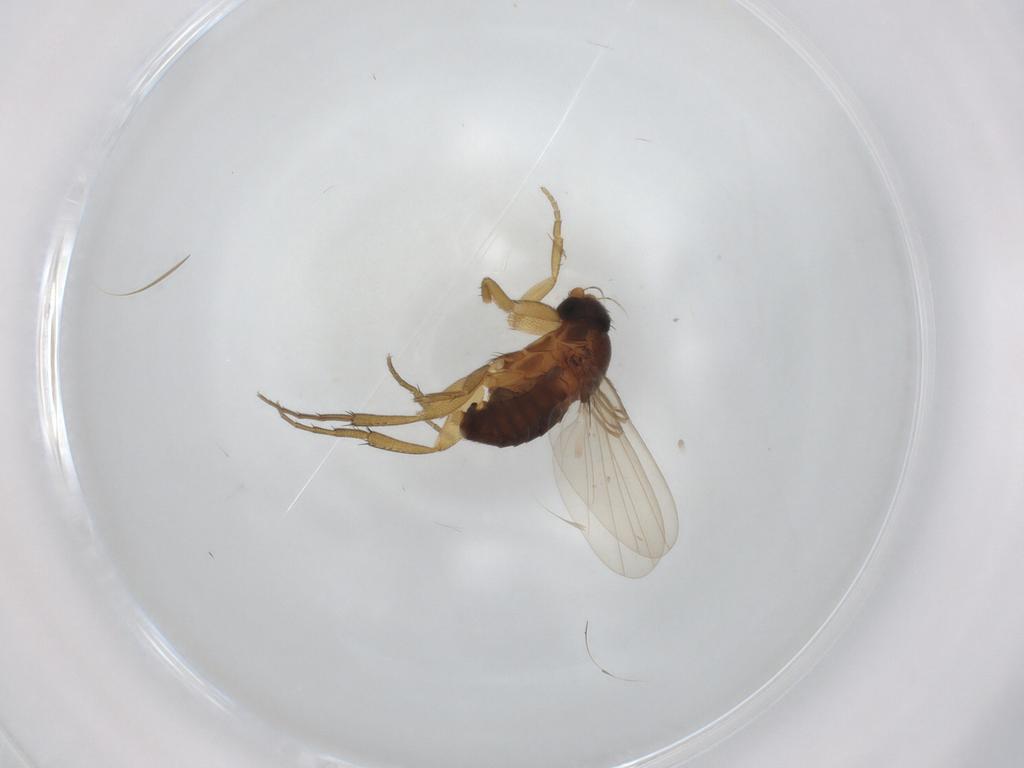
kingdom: Animalia
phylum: Arthropoda
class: Insecta
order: Diptera
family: Phoridae
